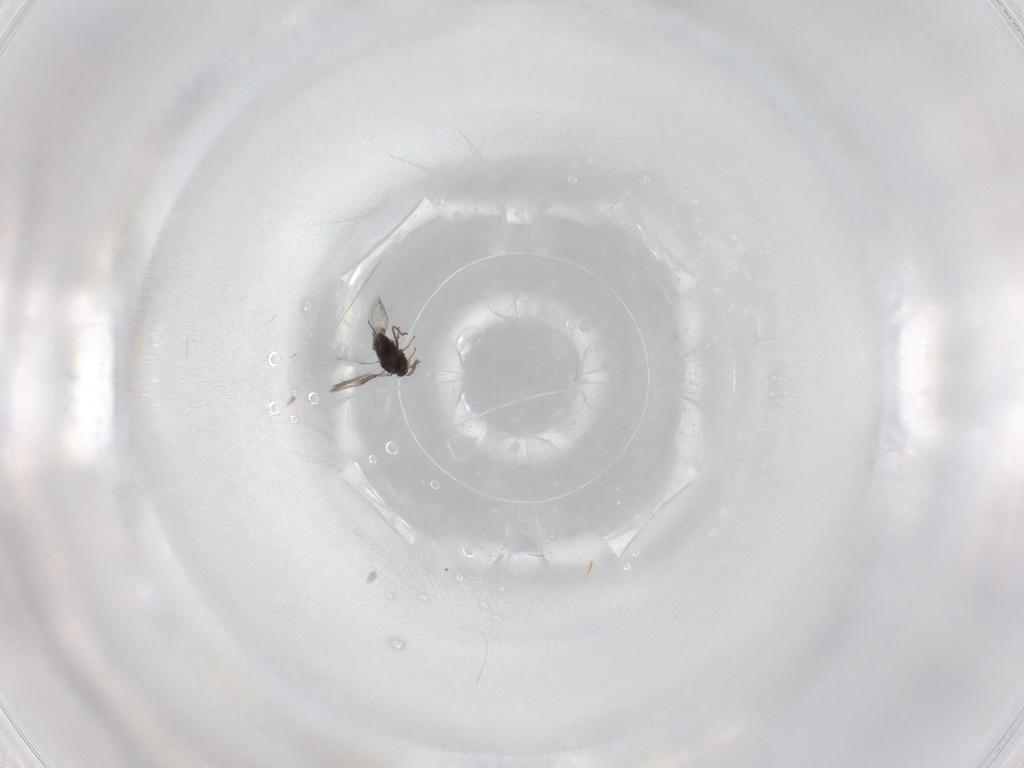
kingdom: Animalia
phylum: Arthropoda
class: Insecta
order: Hymenoptera
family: Trichogrammatidae
